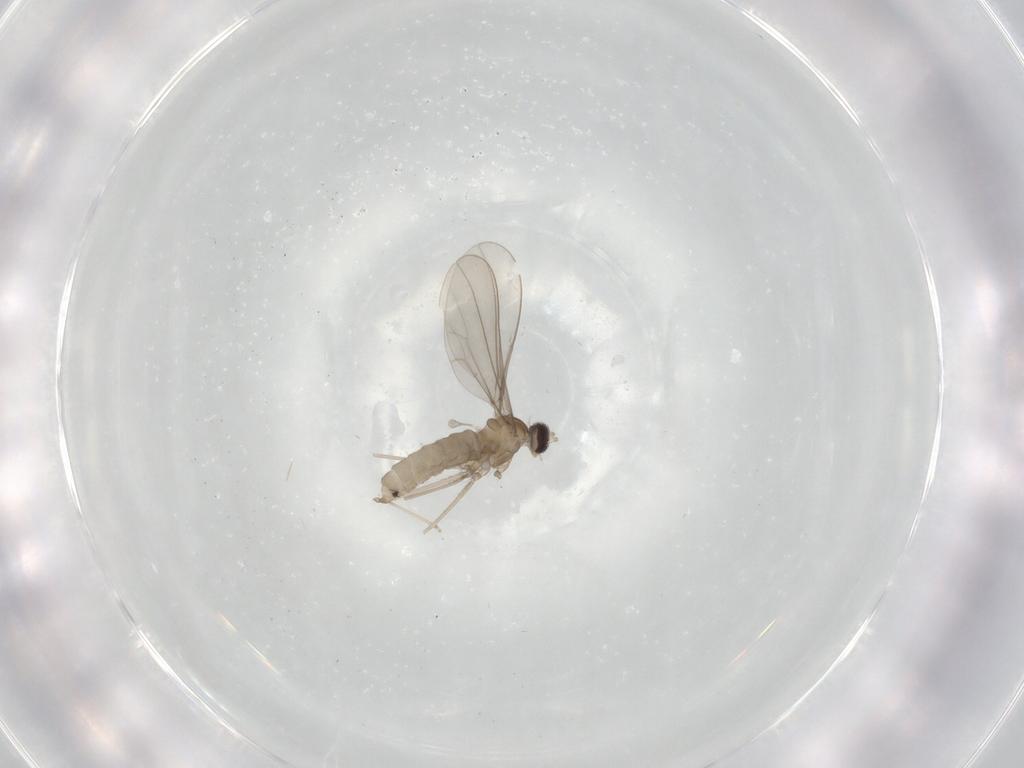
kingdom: Animalia
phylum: Arthropoda
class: Insecta
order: Diptera
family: Cecidomyiidae
